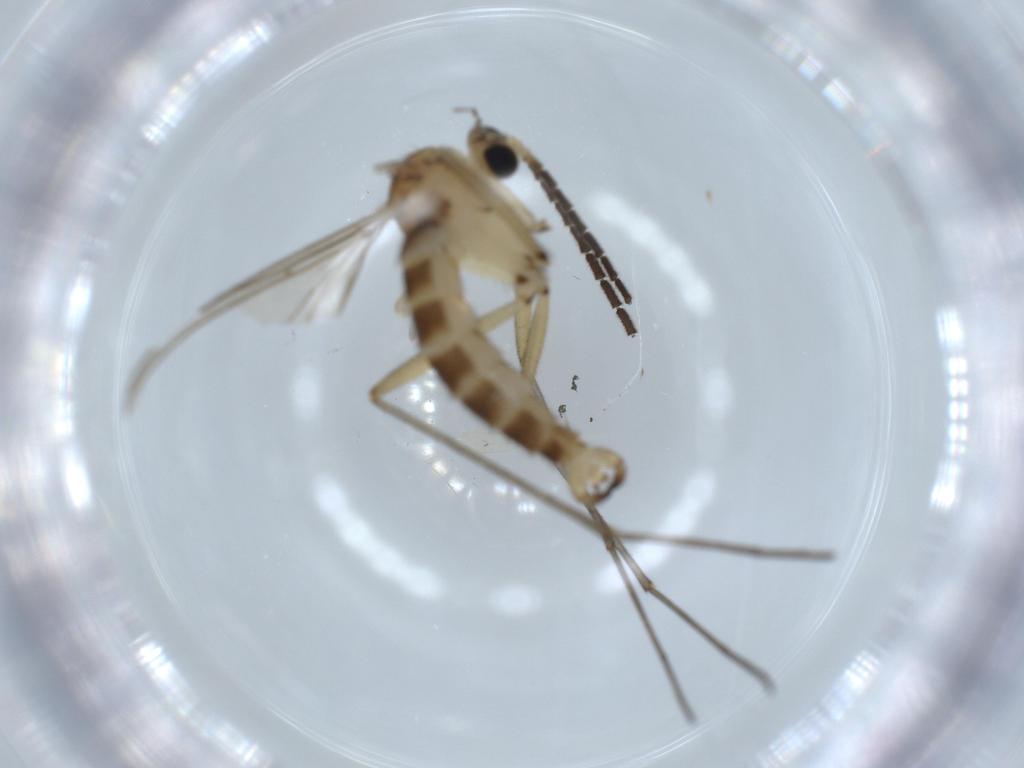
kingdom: Animalia
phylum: Arthropoda
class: Insecta
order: Diptera
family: Sciaridae
